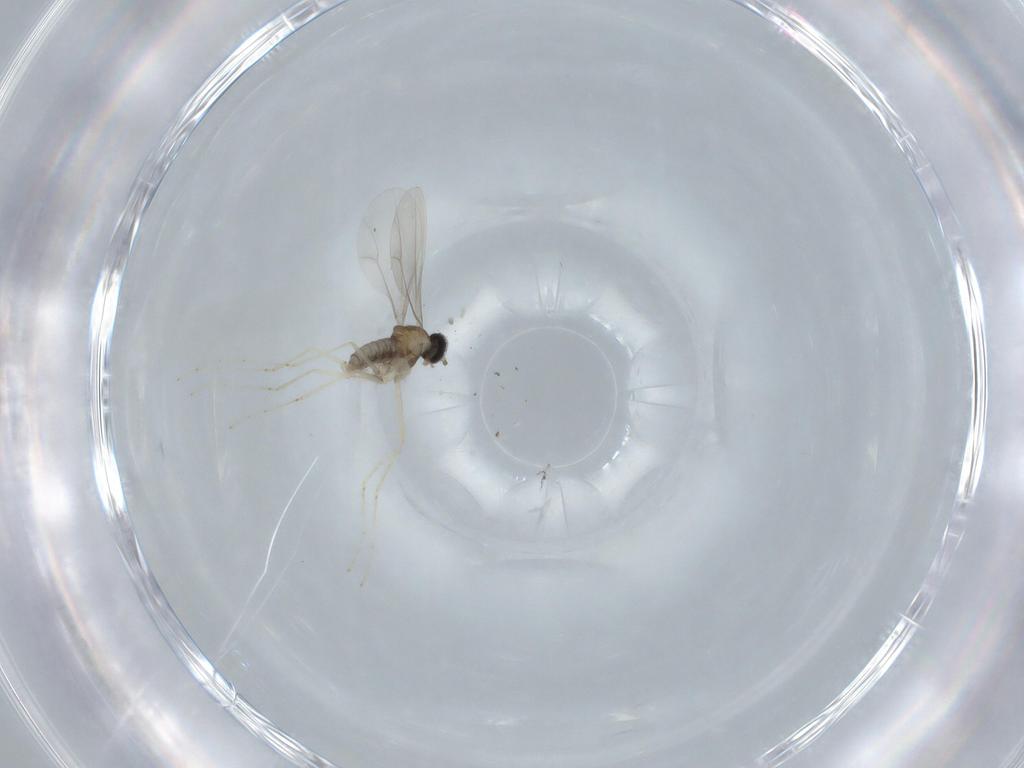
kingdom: Animalia
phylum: Arthropoda
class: Insecta
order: Diptera
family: Cecidomyiidae
